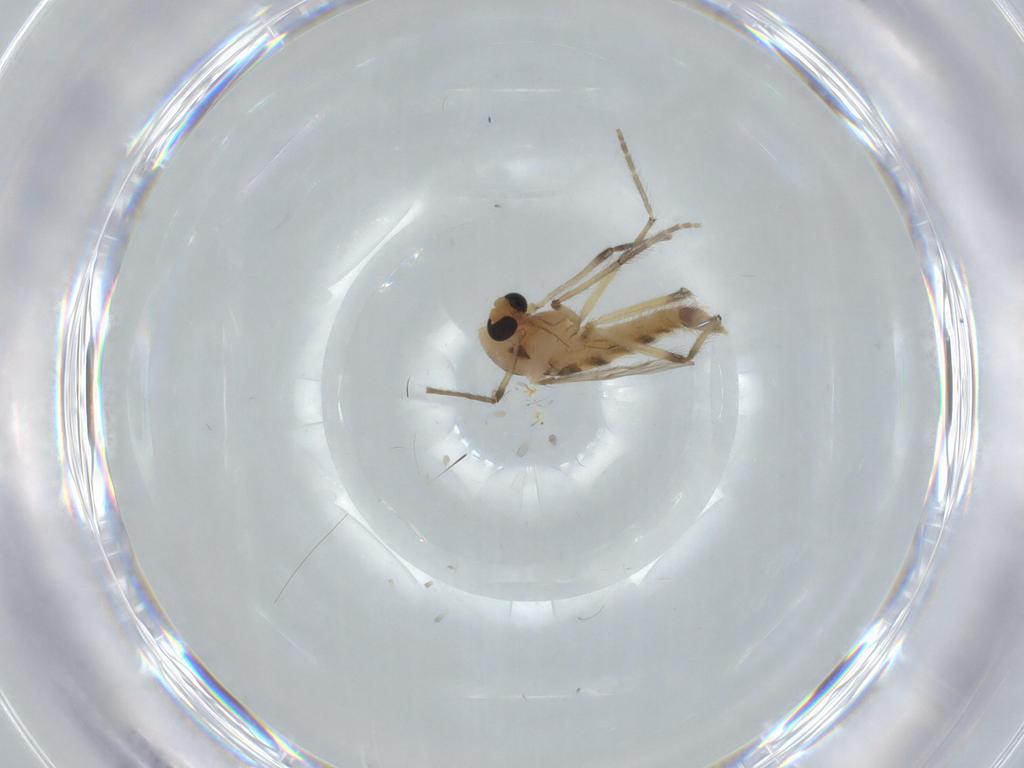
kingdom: Animalia
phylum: Arthropoda
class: Insecta
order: Diptera
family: Chironomidae
